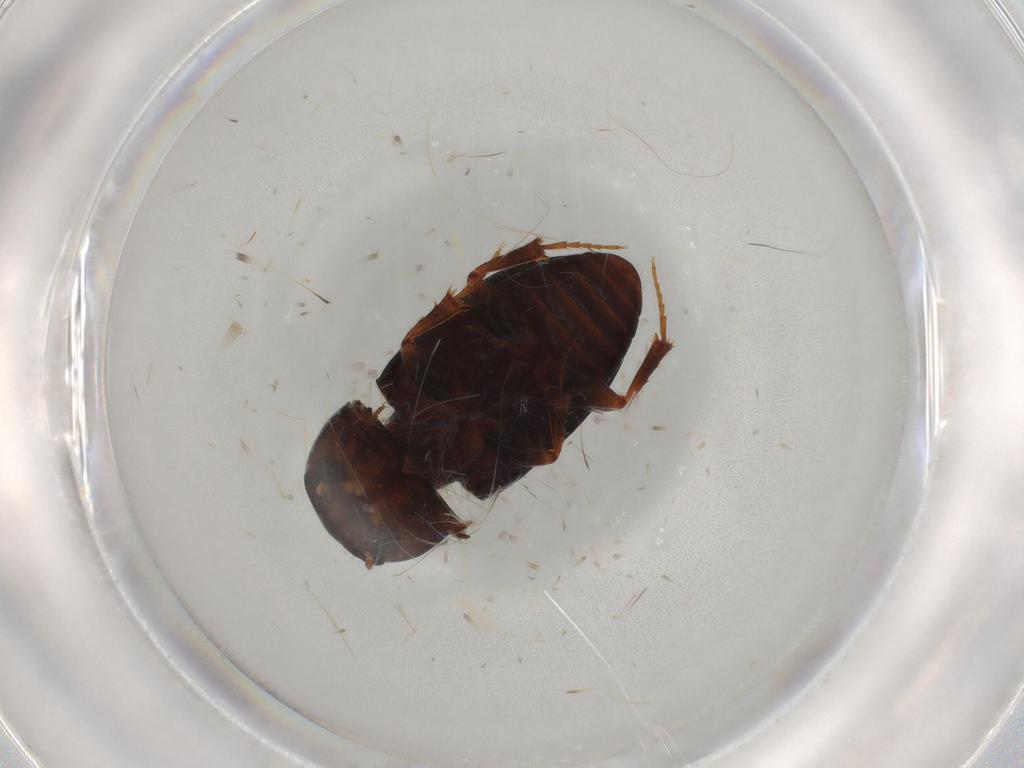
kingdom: Animalia
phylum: Arthropoda
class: Insecta
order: Coleoptera
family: Scarabaeidae
